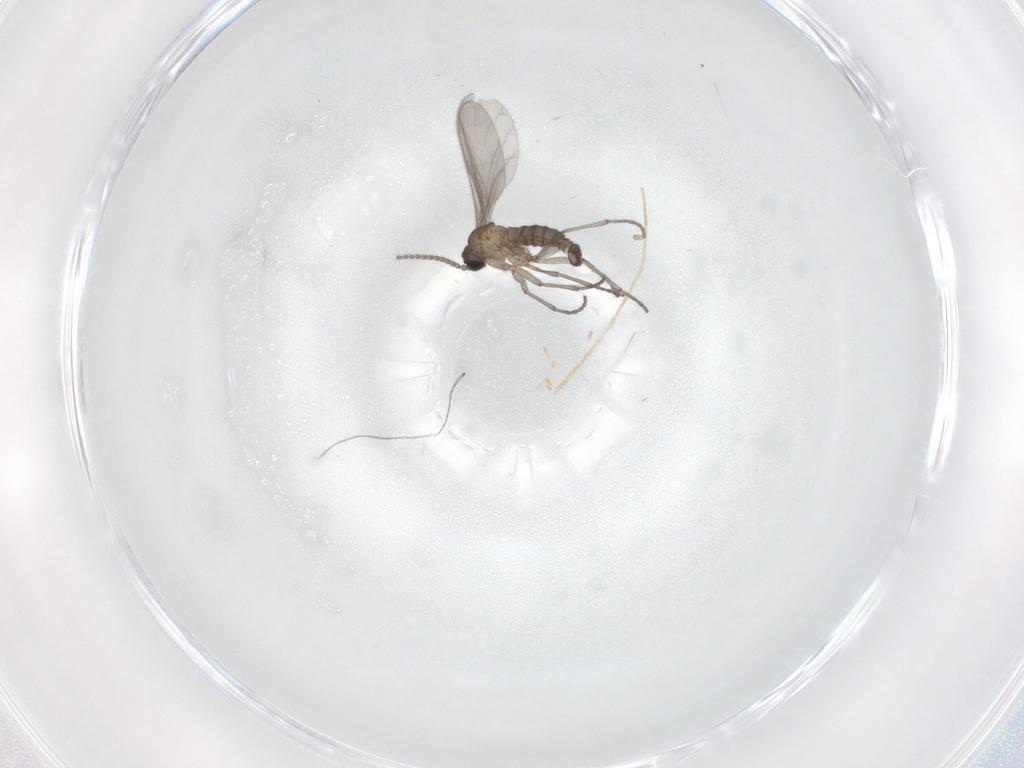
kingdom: Animalia
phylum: Arthropoda
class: Insecta
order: Diptera
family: Sciaridae
